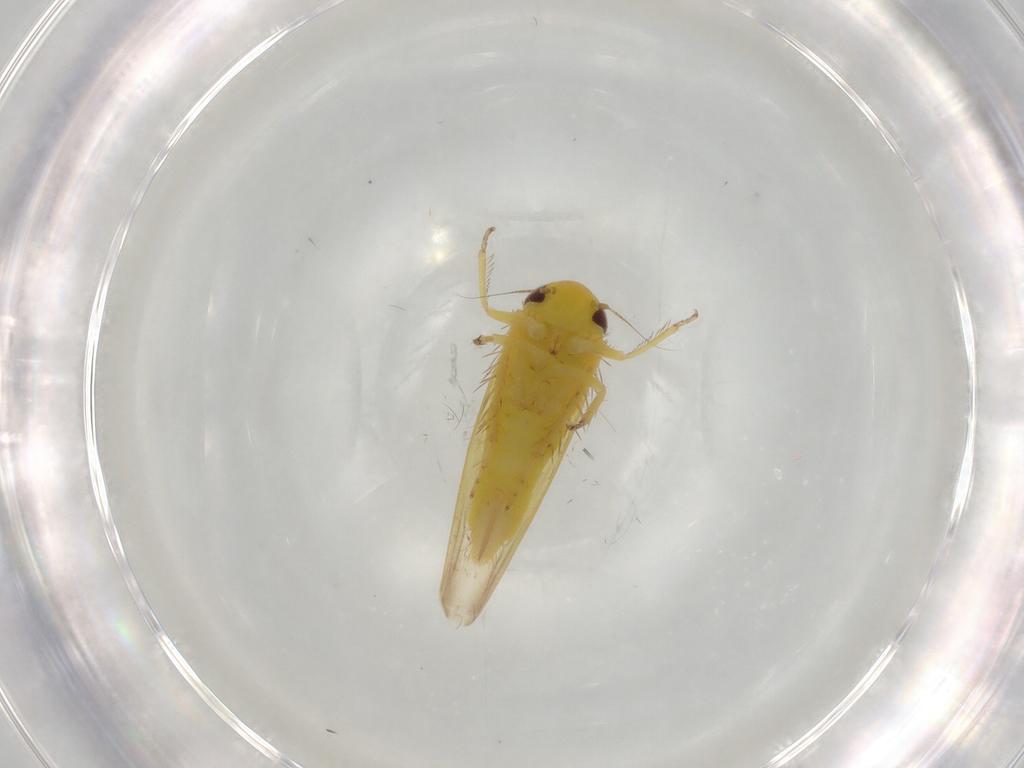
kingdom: Animalia
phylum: Arthropoda
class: Insecta
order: Hemiptera
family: Cicadellidae
